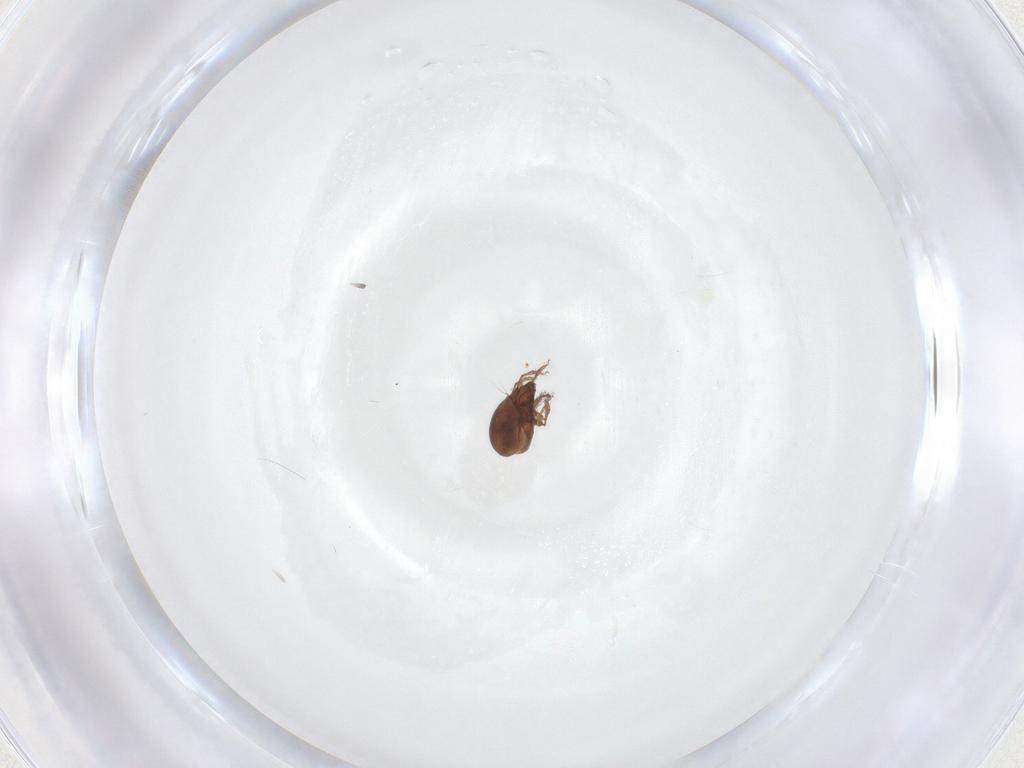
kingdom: Animalia
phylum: Arthropoda
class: Arachnida
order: Sarcoptiformes
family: Ceratozetidae
